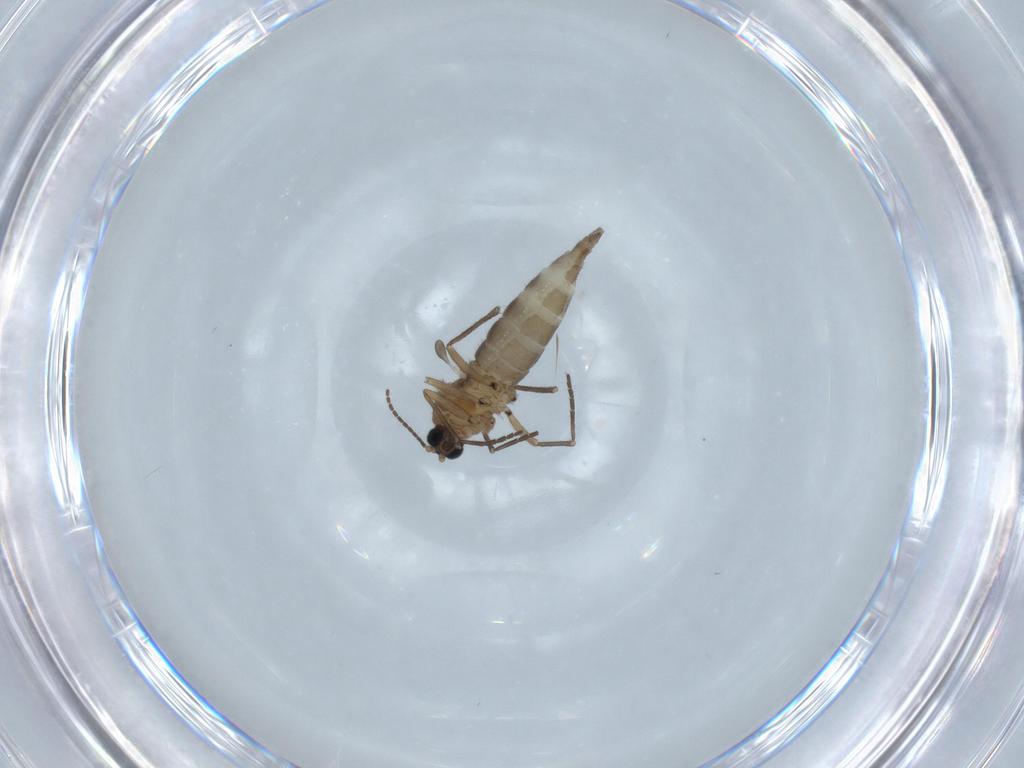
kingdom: Animalia
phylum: Arthropoda
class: Insecta
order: Diptera
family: Sciaridae
